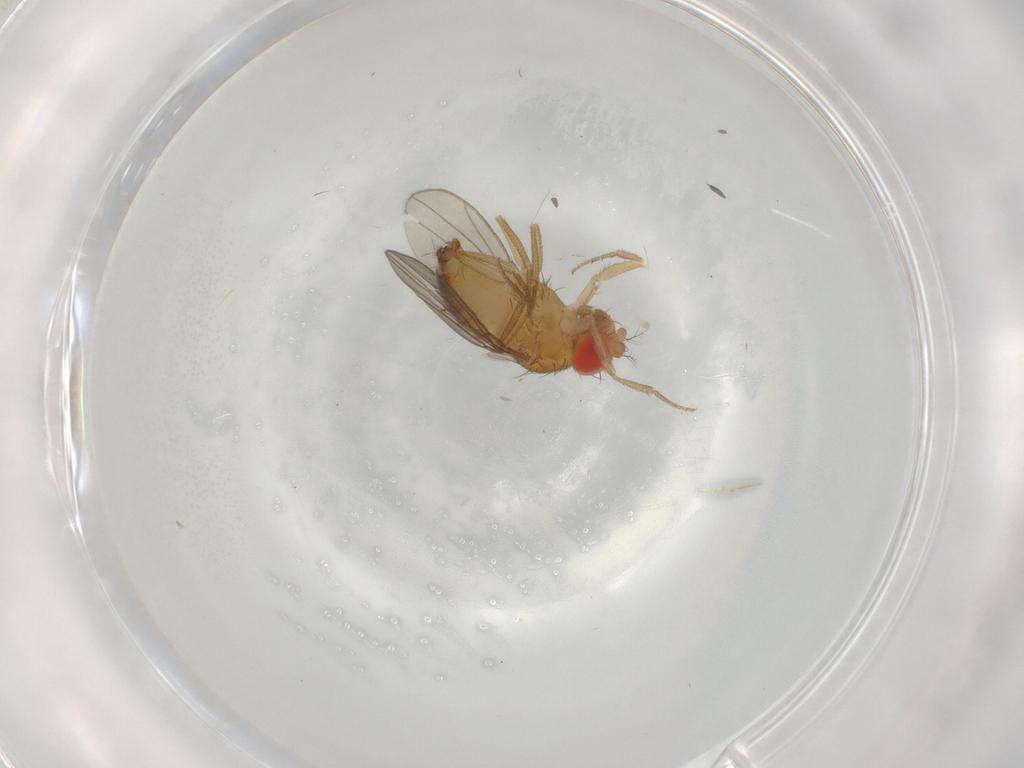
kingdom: Animalia
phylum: Arthropoda
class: Insecta
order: Diptera
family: Drosophilidae
